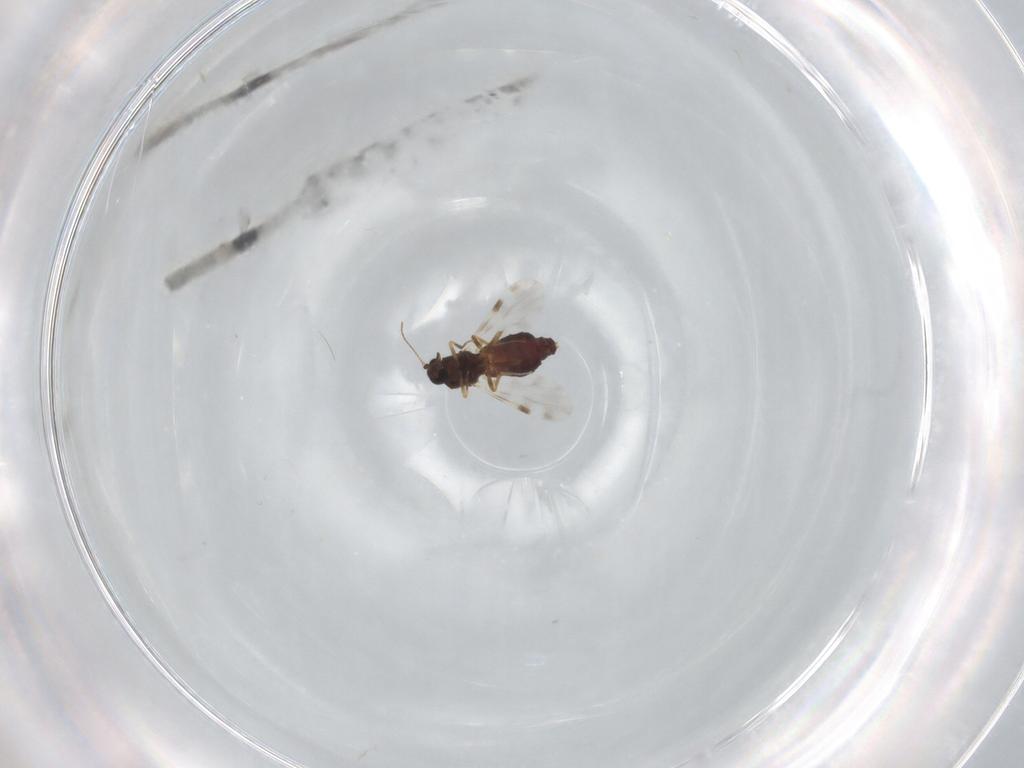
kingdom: Animalia
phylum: Arthropoda
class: Insecta
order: Diptera
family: Ceratopogonidae
